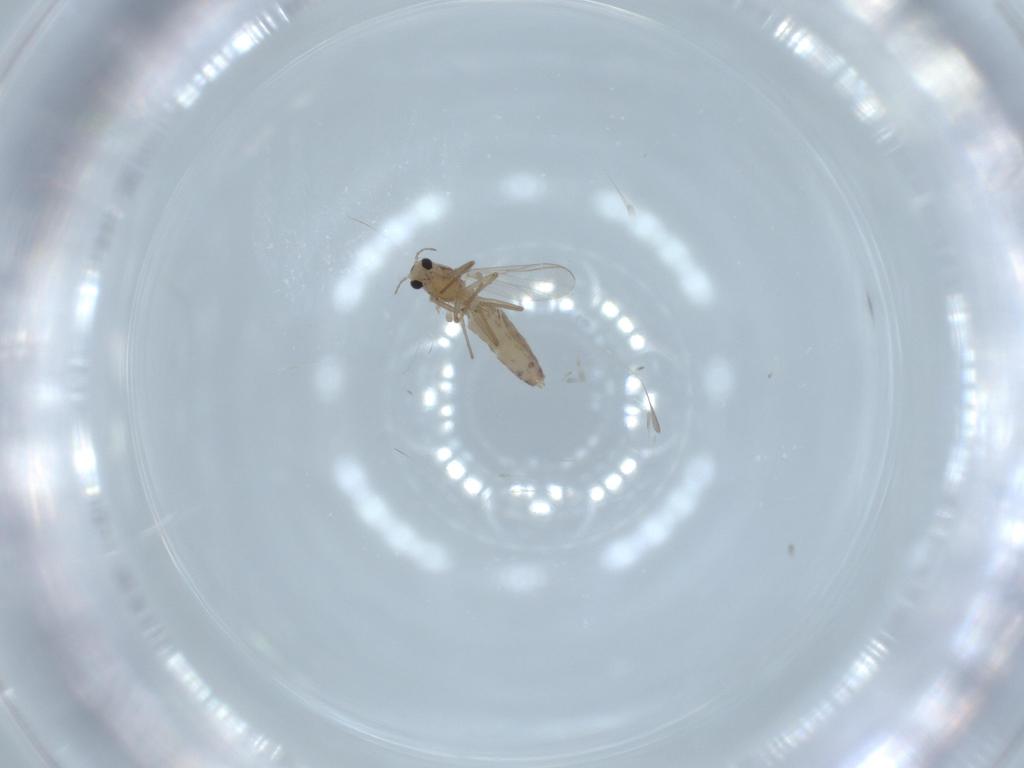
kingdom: Animalia
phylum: Arthropoda
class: Insecta
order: Diptera
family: Chironomidae
